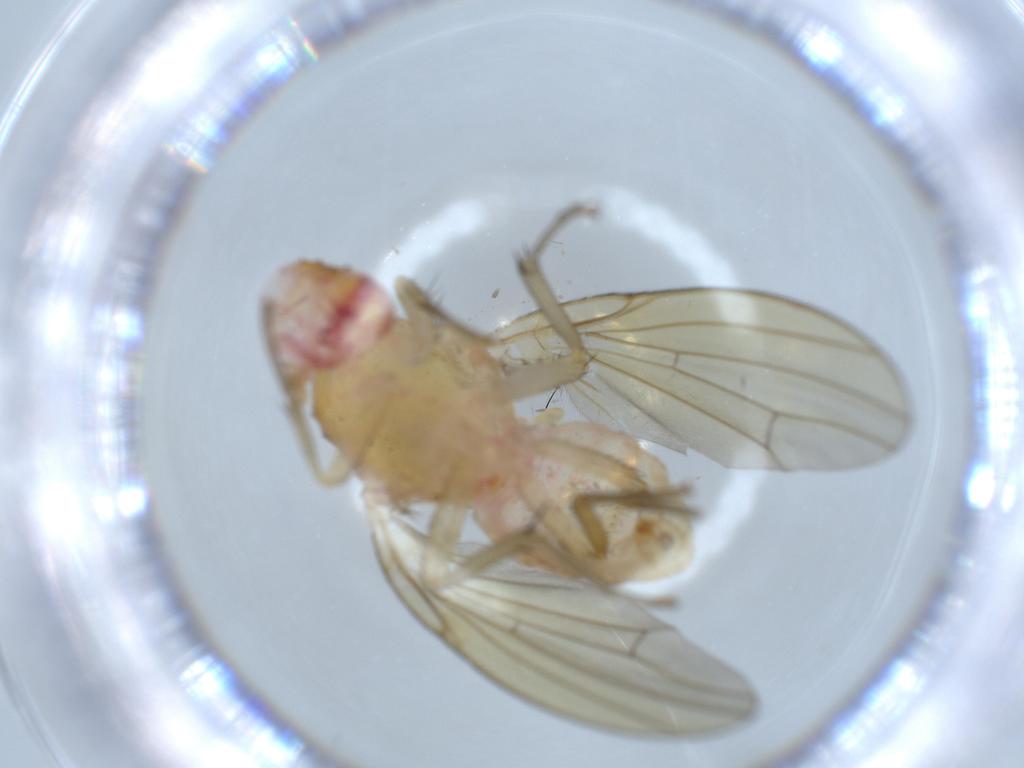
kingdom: Animalia
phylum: Arthropoda
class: Insecta
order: Diptera
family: Cecidomyiidae
